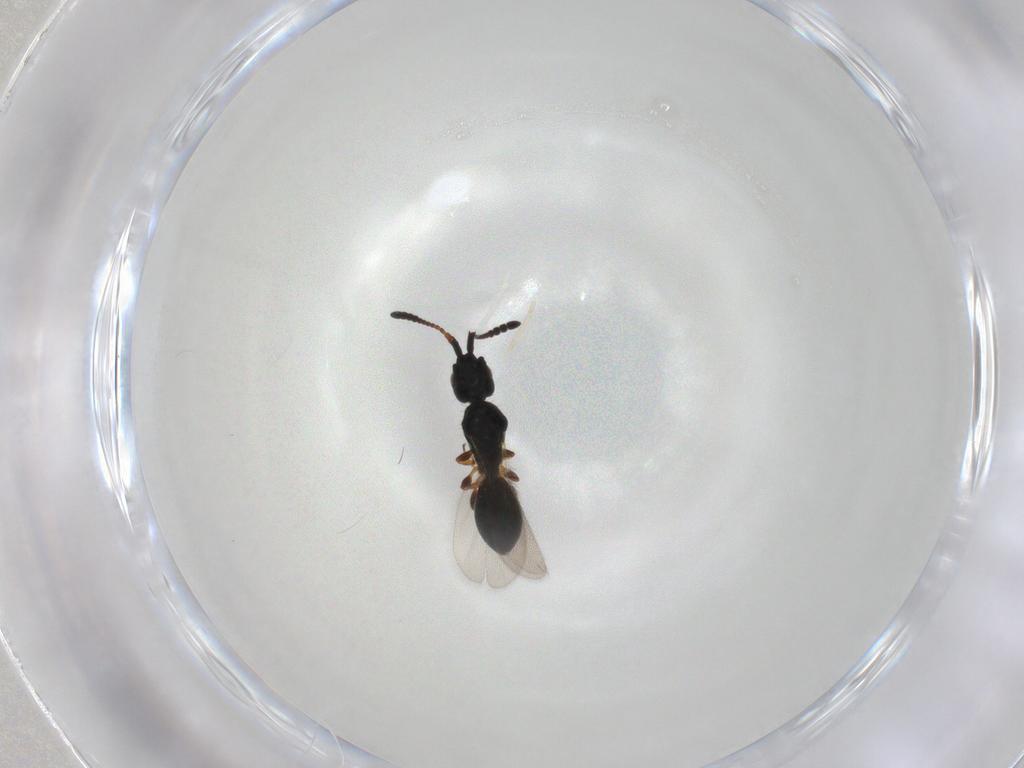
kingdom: Animalia
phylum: Arthropoda
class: Insecta
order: Hymenoptera
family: Diapriidae
